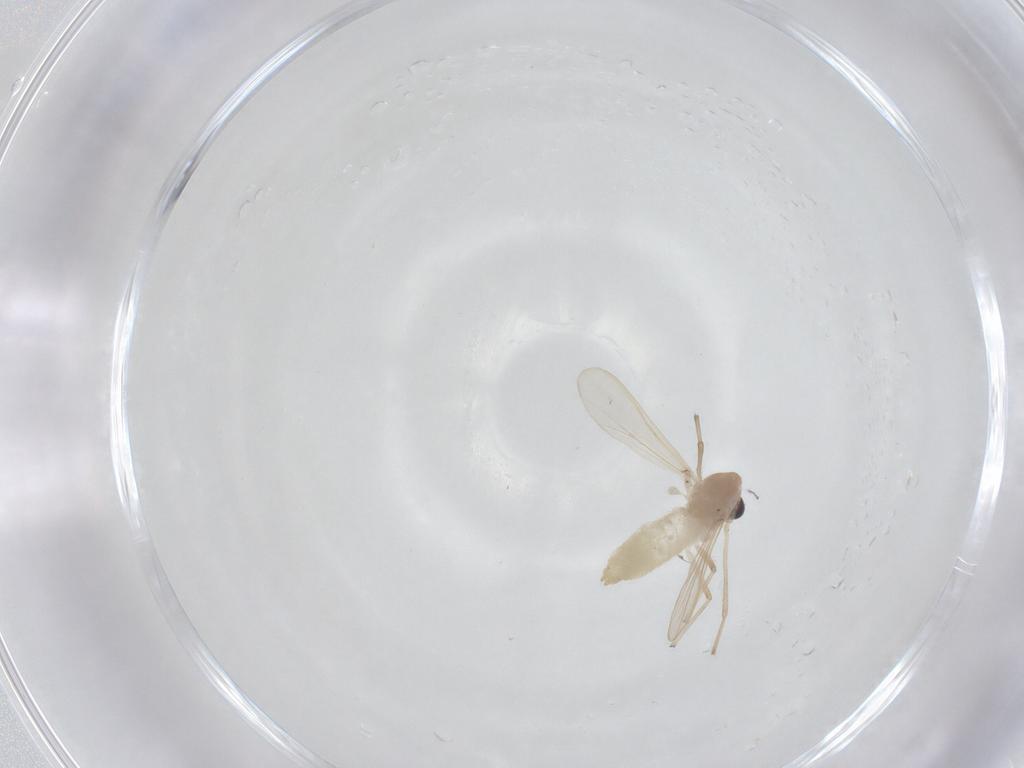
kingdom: Animalia
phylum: Arthropoda
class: Insecta
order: Diptera
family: Chironomidae
